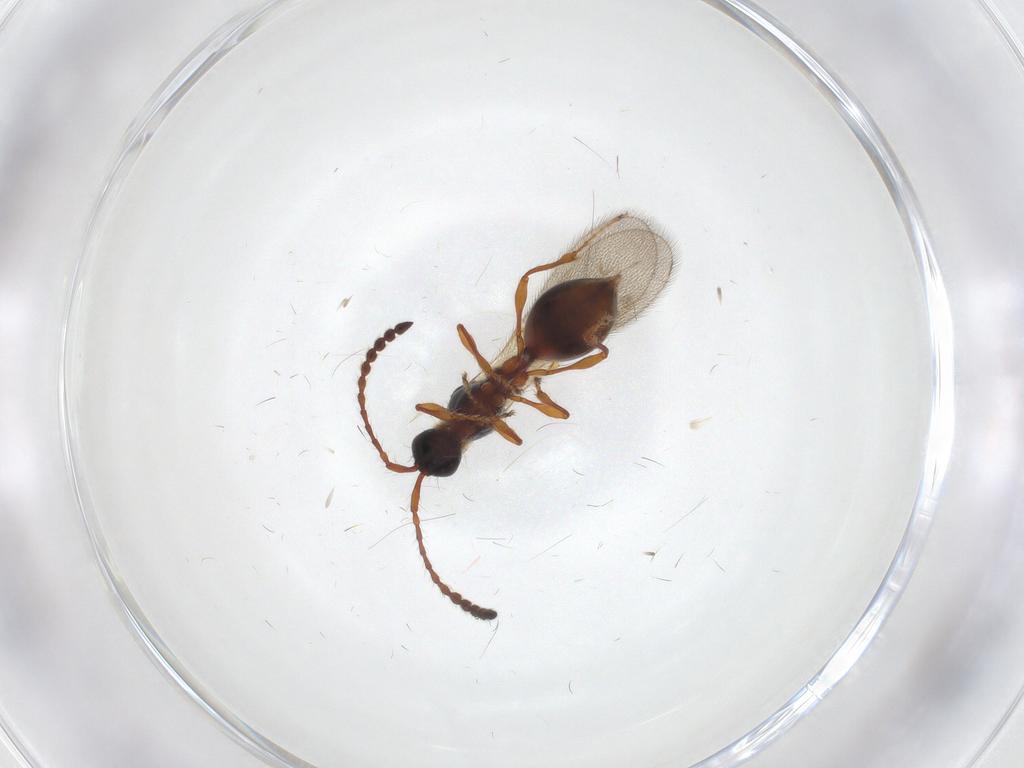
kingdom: Animalia
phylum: Arthropoda
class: Insecta
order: Hymenoptera
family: Diapriidae
